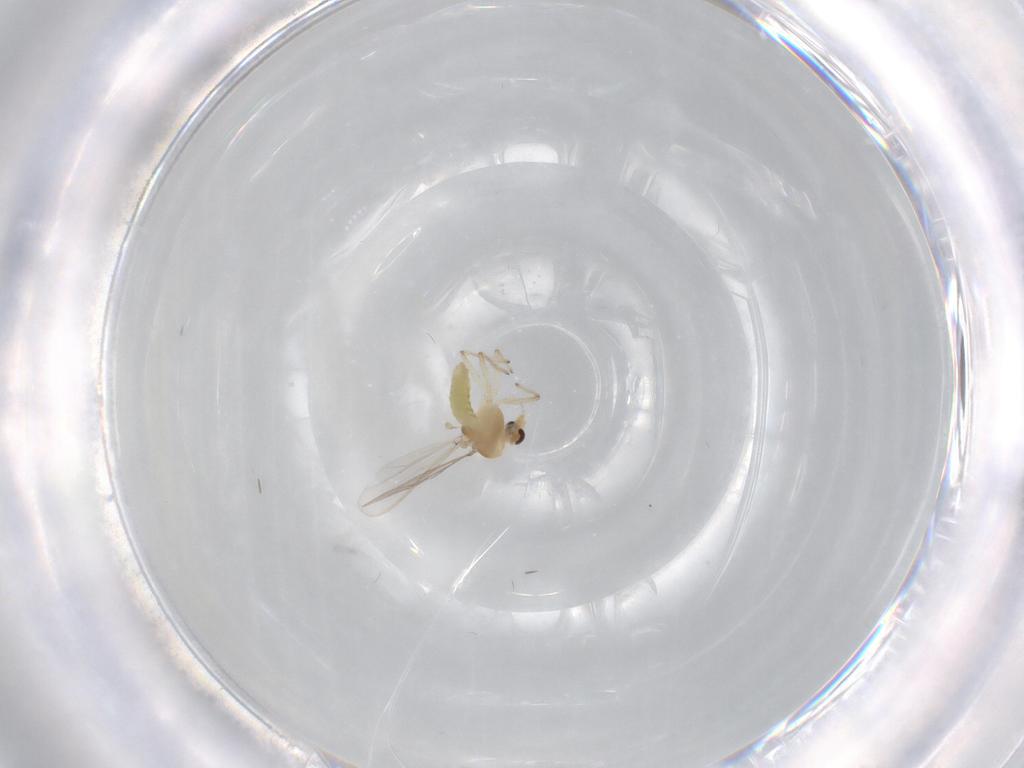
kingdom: Animalia
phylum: Arthropoda
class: Insecta
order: Diptera
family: Chironomidae
